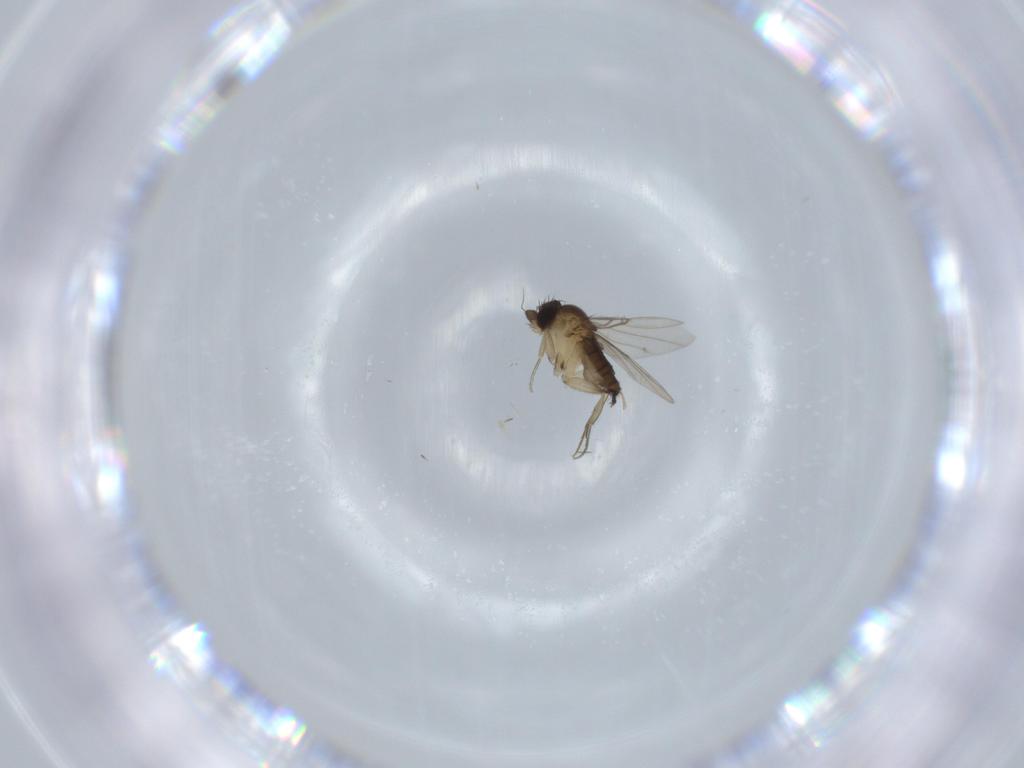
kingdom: Animalia
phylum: Arthropoda
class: Insecta
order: Diptera
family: Phoridae
